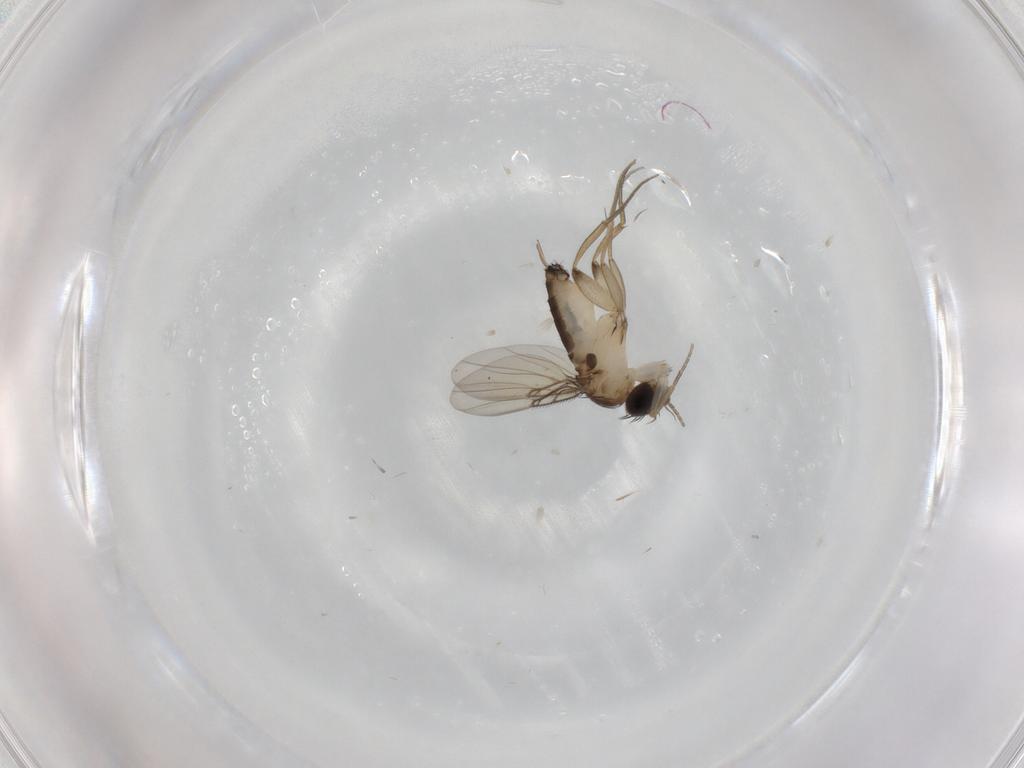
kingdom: Animalia
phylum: Arthropoda
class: Insecta
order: Diptera
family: Phoridae
